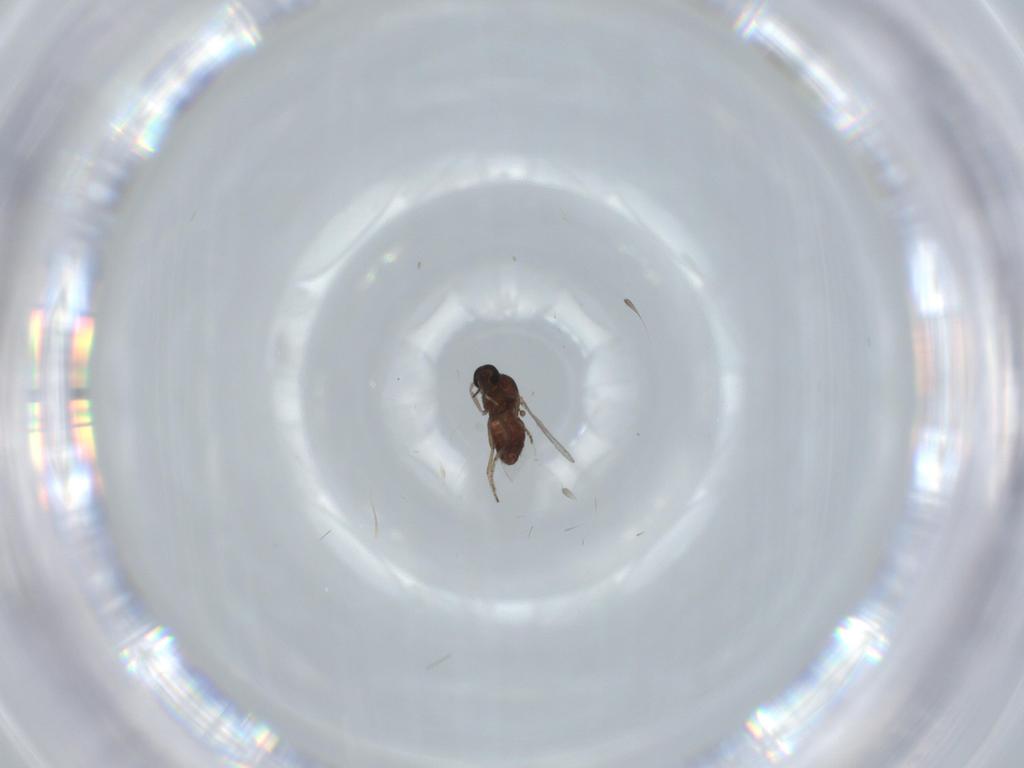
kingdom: Animalia
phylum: Arthropoda
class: Insecta
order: Diptera
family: Ceratopogonidae
